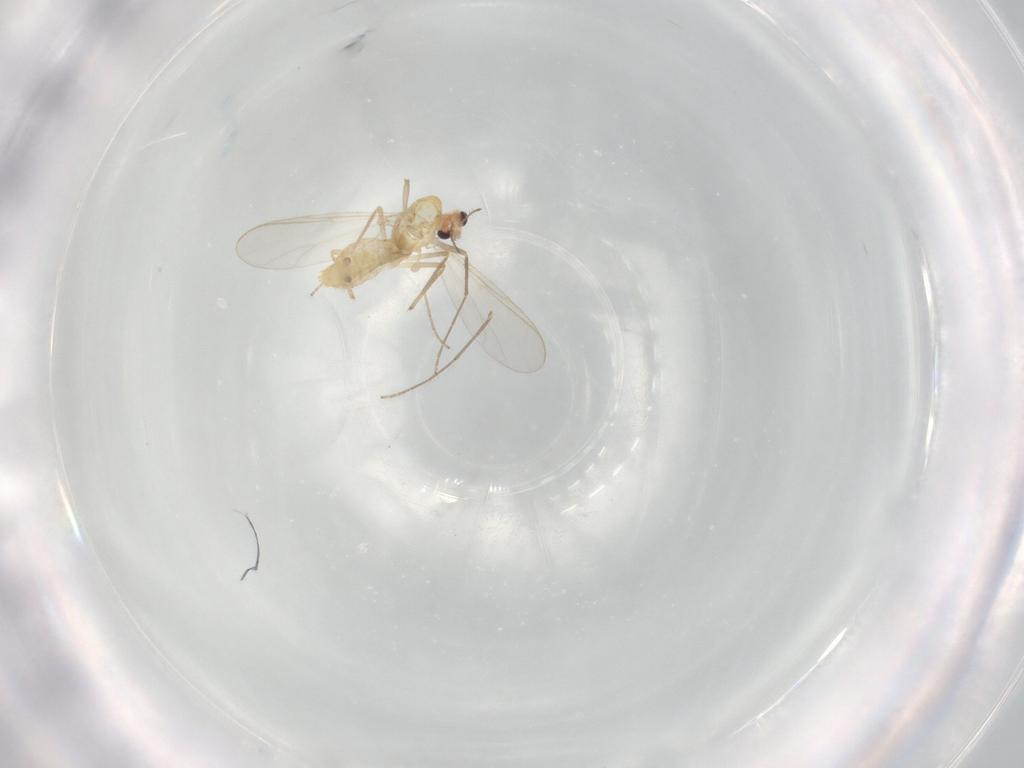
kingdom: Animalia
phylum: Arthropoda
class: Insecta
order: Diptera
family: Chironomidae
